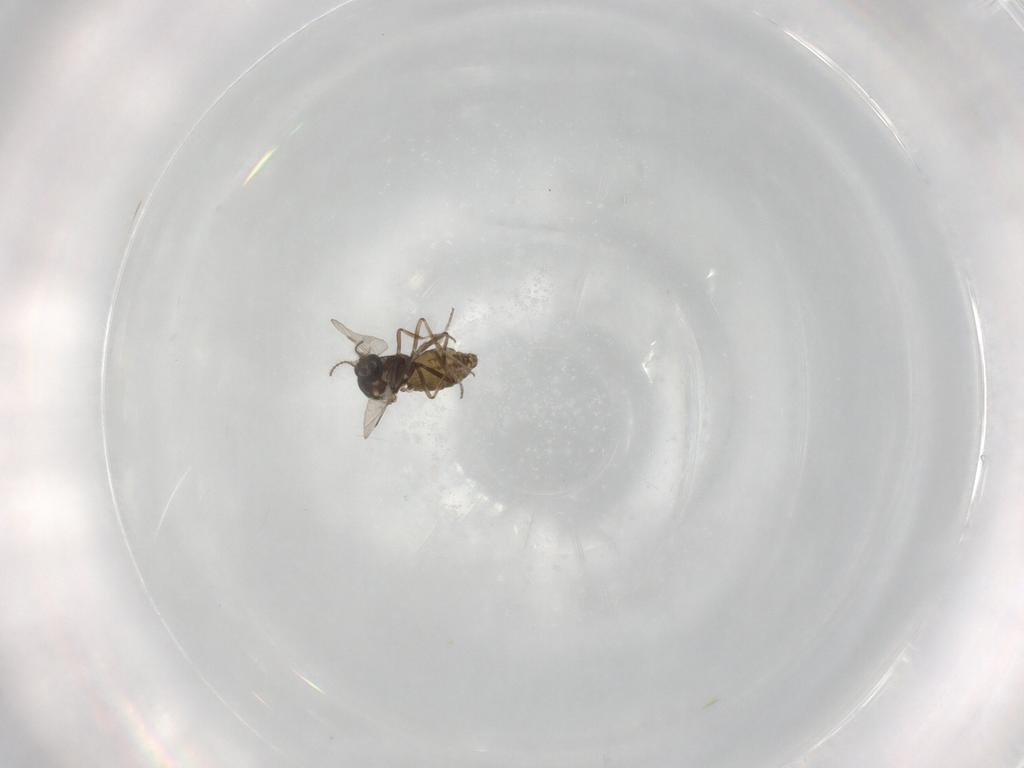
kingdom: Animalia
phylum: Arthropoda
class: Insecta
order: Diptera
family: Ceratopogonidae
